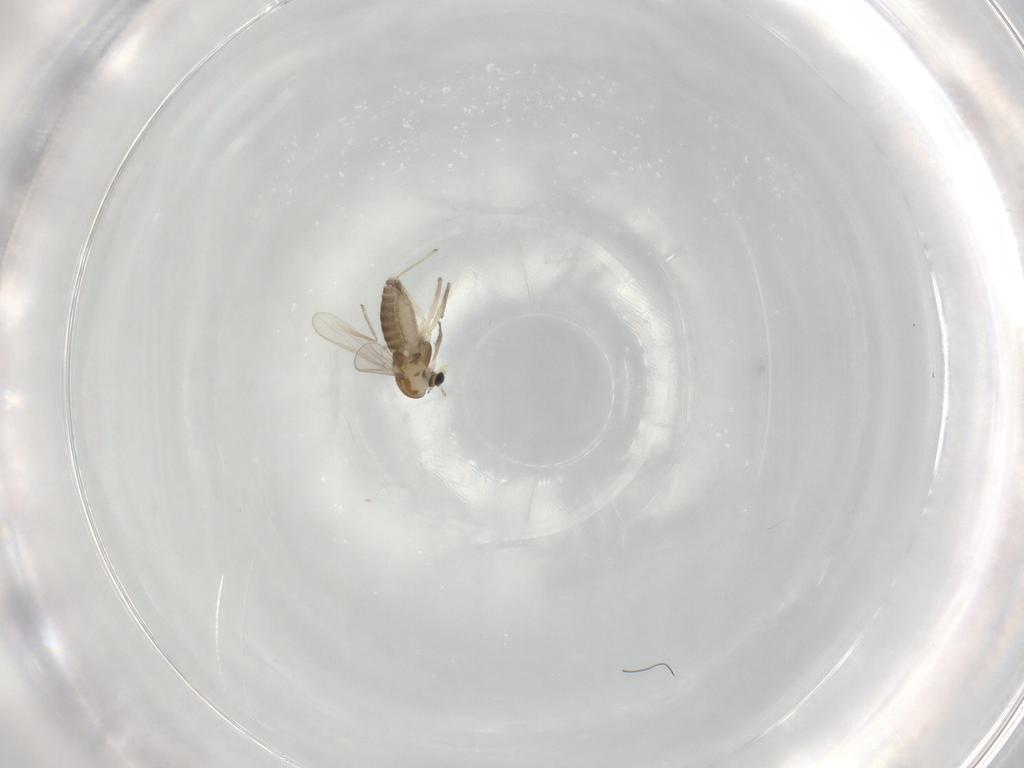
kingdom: Animalia
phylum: Arthropoda
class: Insecta
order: Diptera
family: Chironomidae
